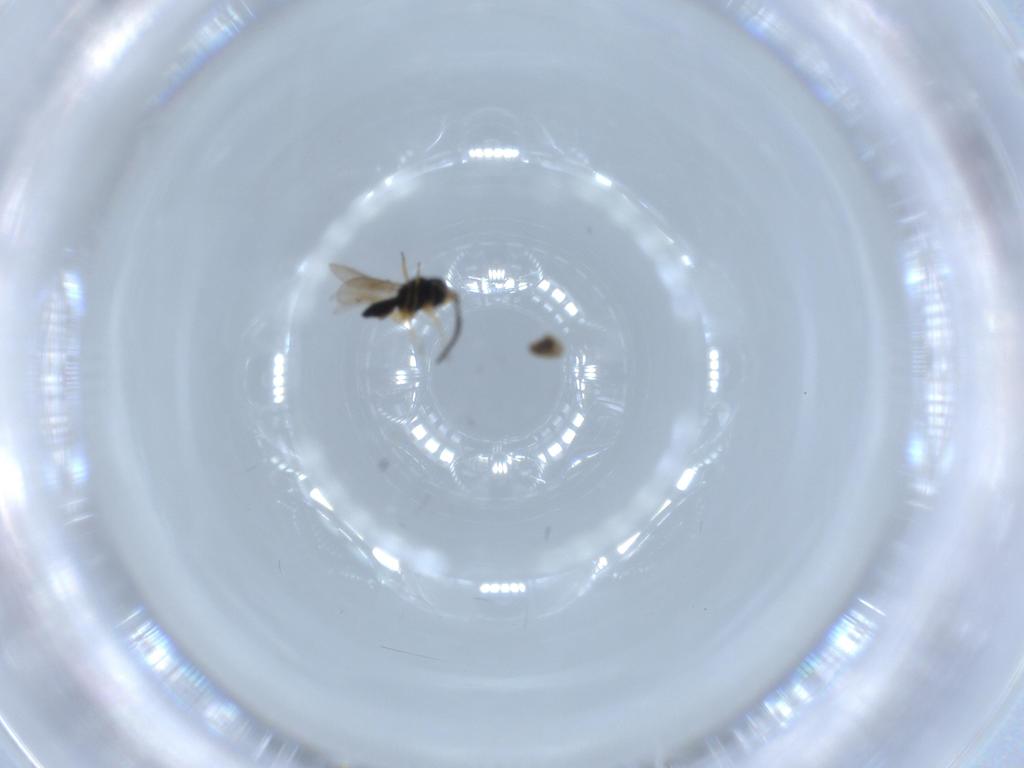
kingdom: Animalia
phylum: Arthropoda
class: Insecta
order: Hymenoptera
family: Scelionidae
